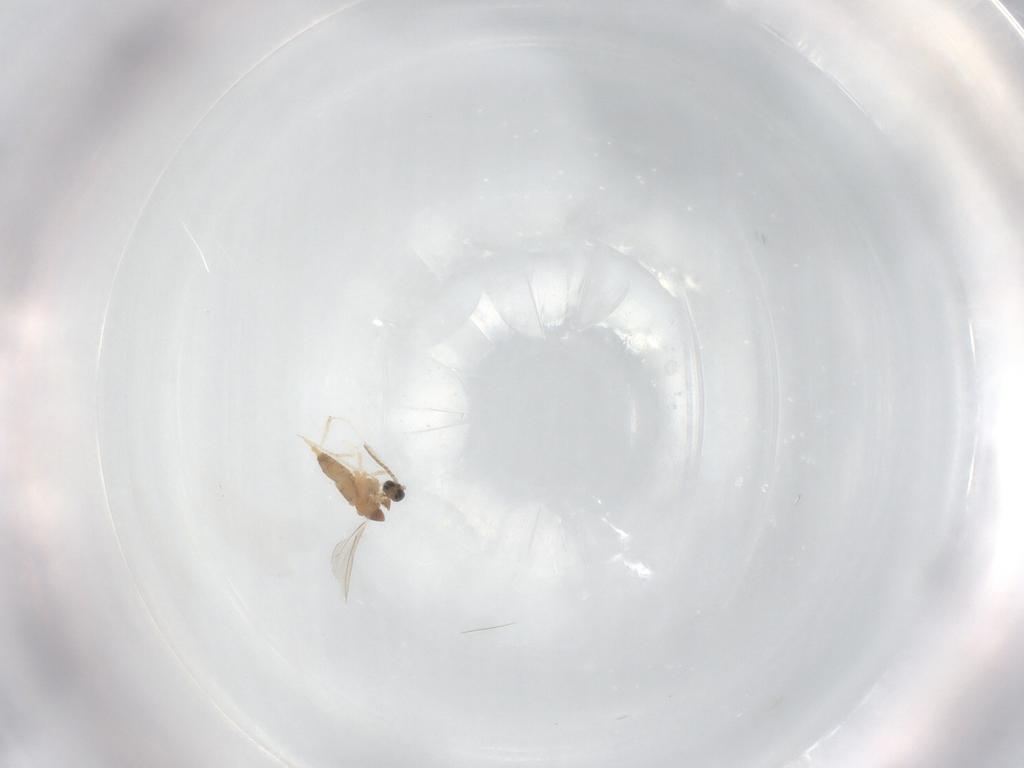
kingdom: Animalia
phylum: Arthropoda
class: Insecta
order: Diptera
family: Cecidomyiidae
